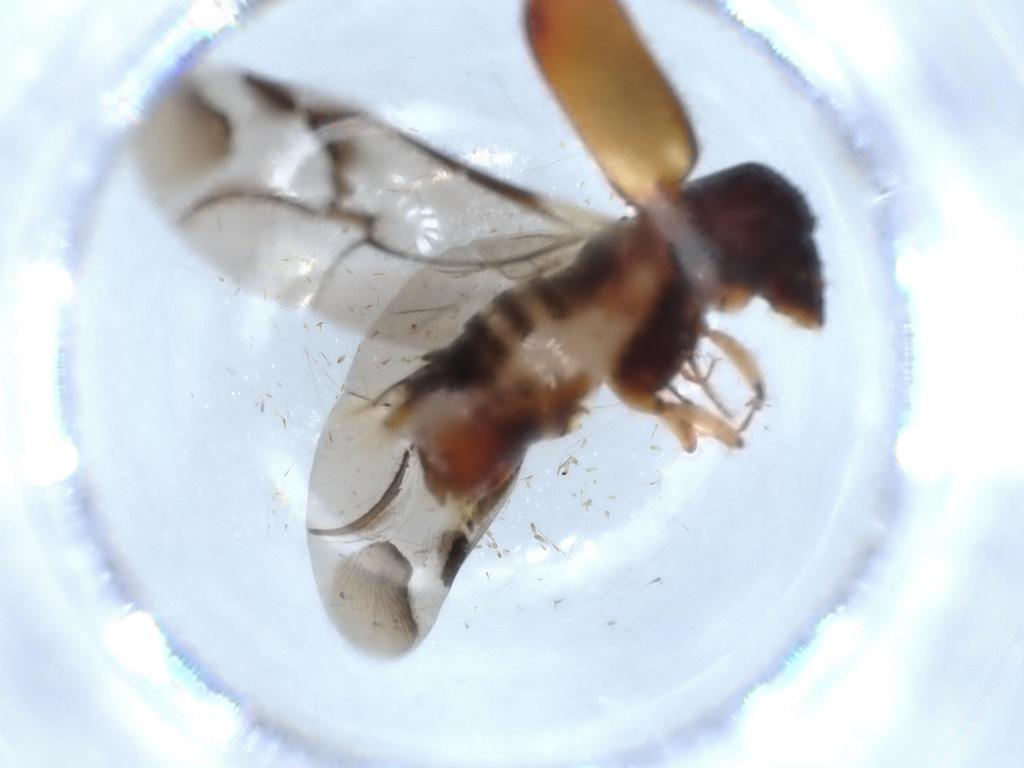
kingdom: Animalia
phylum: Arthropoda
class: Insecta
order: Coleoptera
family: Bostrichidae
